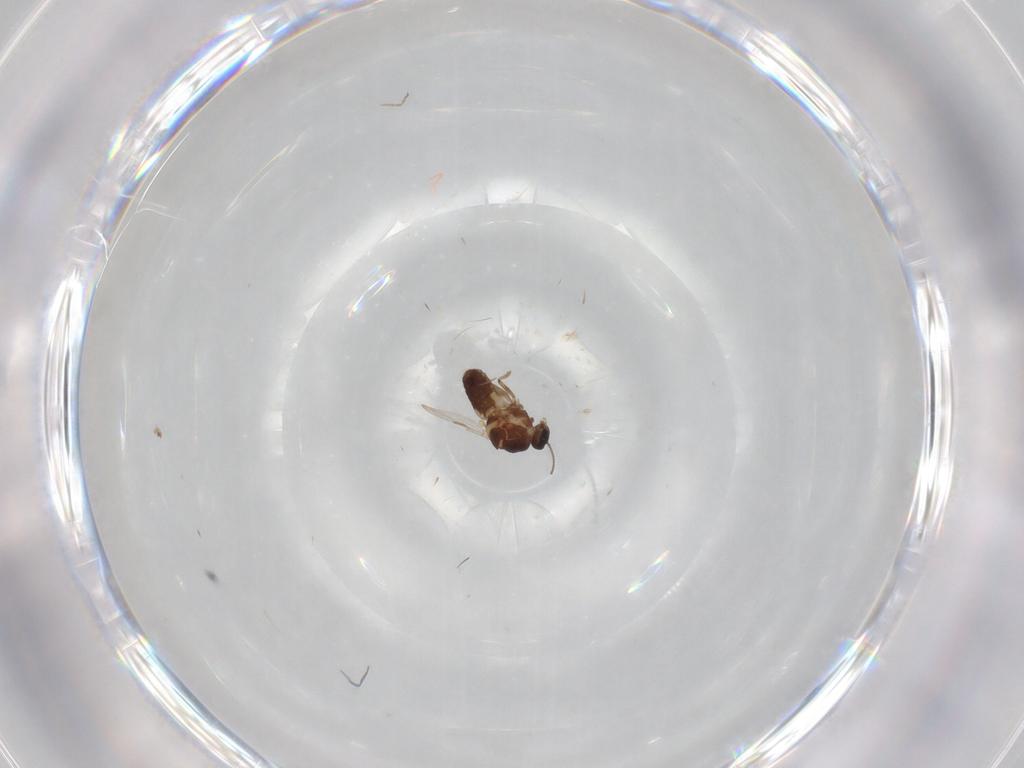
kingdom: Animalia
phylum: Arthropoda
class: Insecta
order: Diptera
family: Ceratopogonidae
